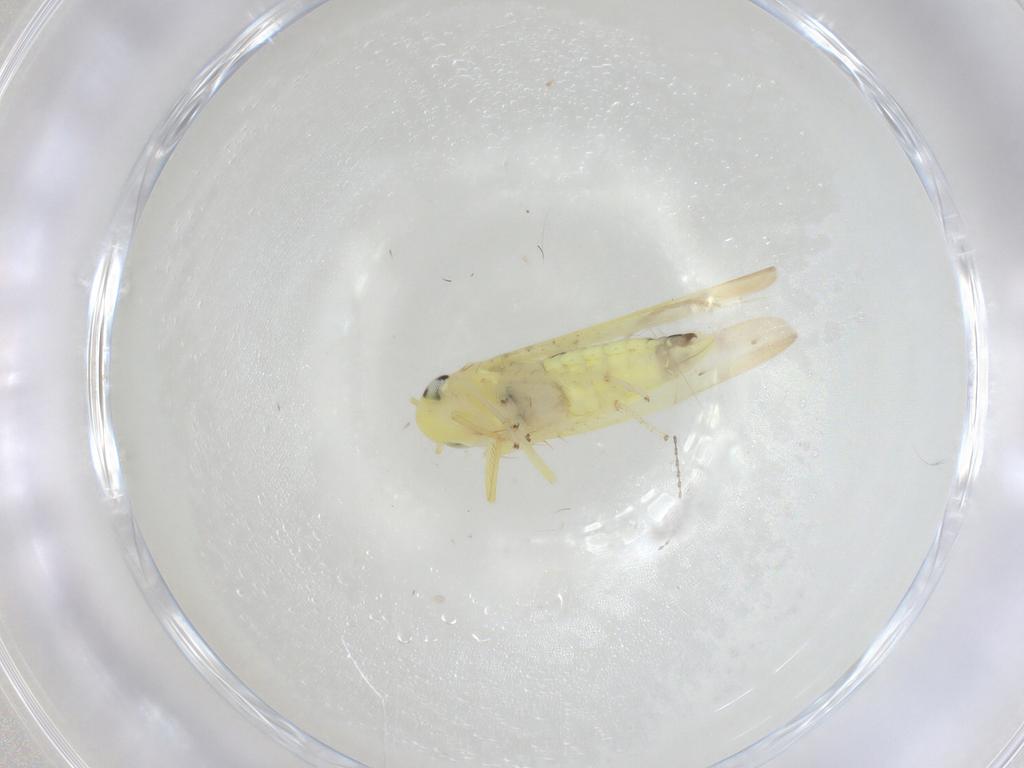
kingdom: Animalia
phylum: Arthropoda
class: Insecta
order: Hemiptera
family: Cicadellidae
